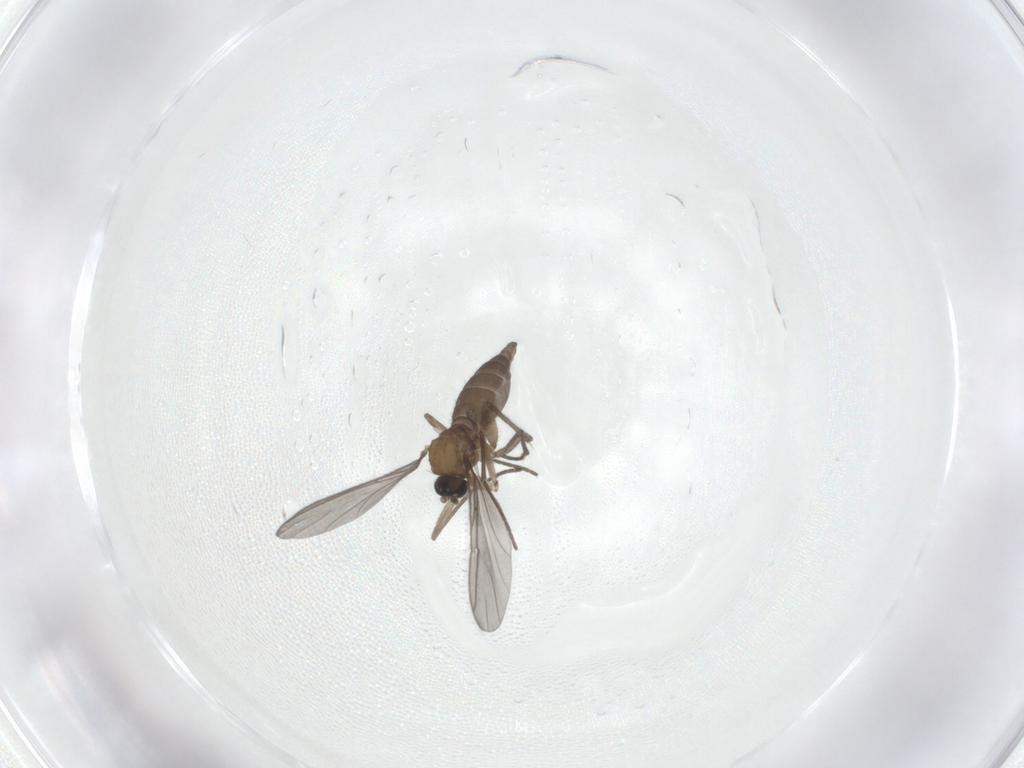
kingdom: Animalia
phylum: Arthropoda
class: Insecta
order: Diptera
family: Sciaridae
